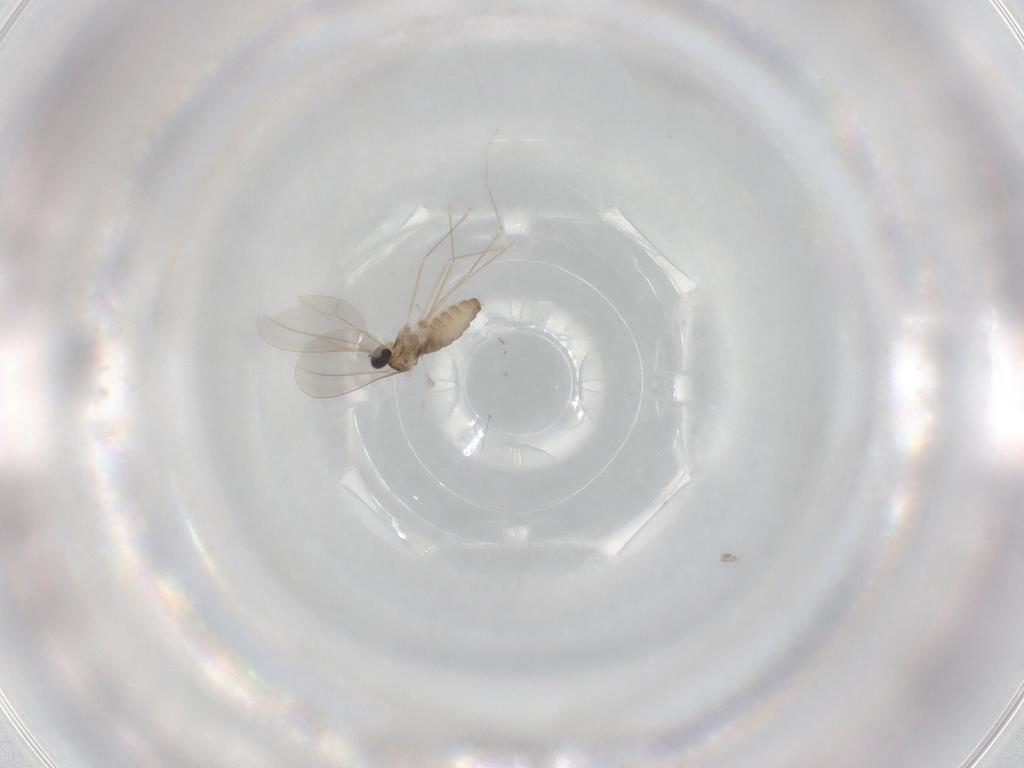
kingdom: Animalia
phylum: Arthropoda
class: Insecta
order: Diptera
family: Cecidomyiidae
